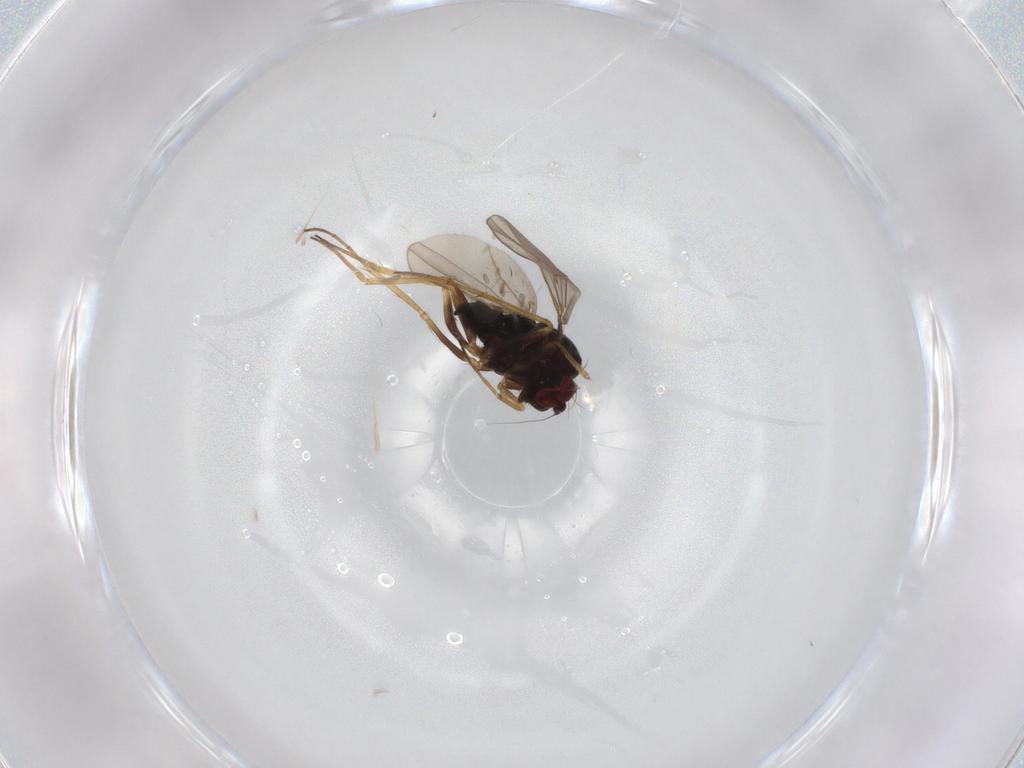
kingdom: Animalia
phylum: Arthropoda
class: Insecta
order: Diptera
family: Dolichopodidae
